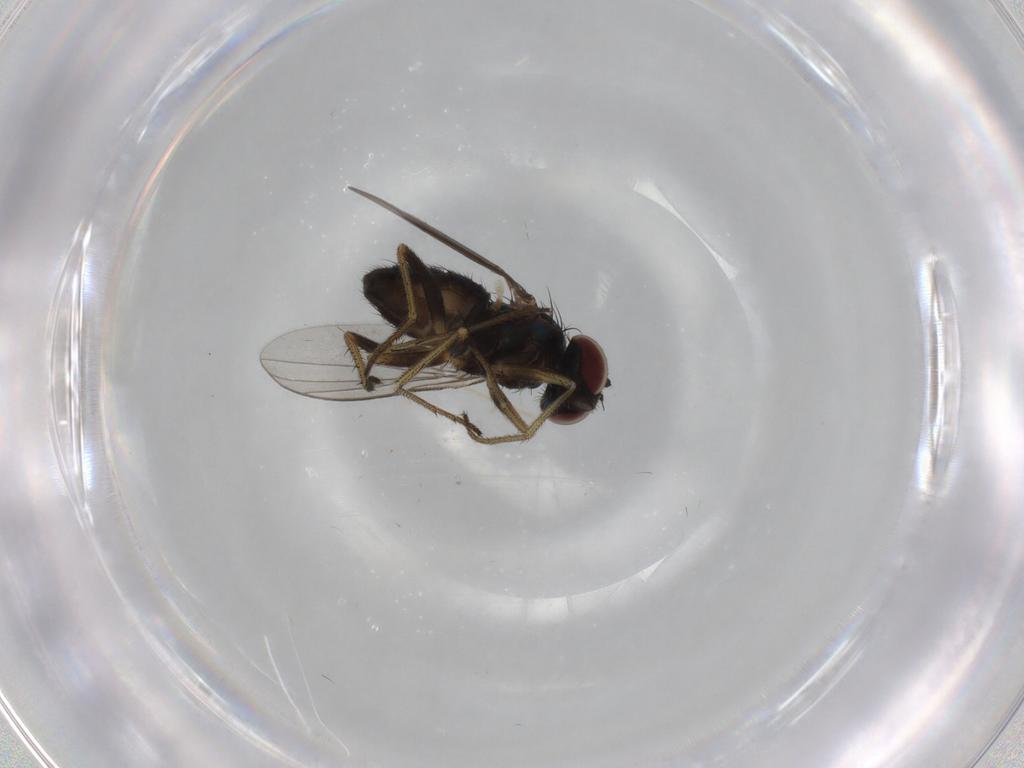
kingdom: Animalia
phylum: Arthropoda
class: Insecta
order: Diptera
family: Dolichopodidae
